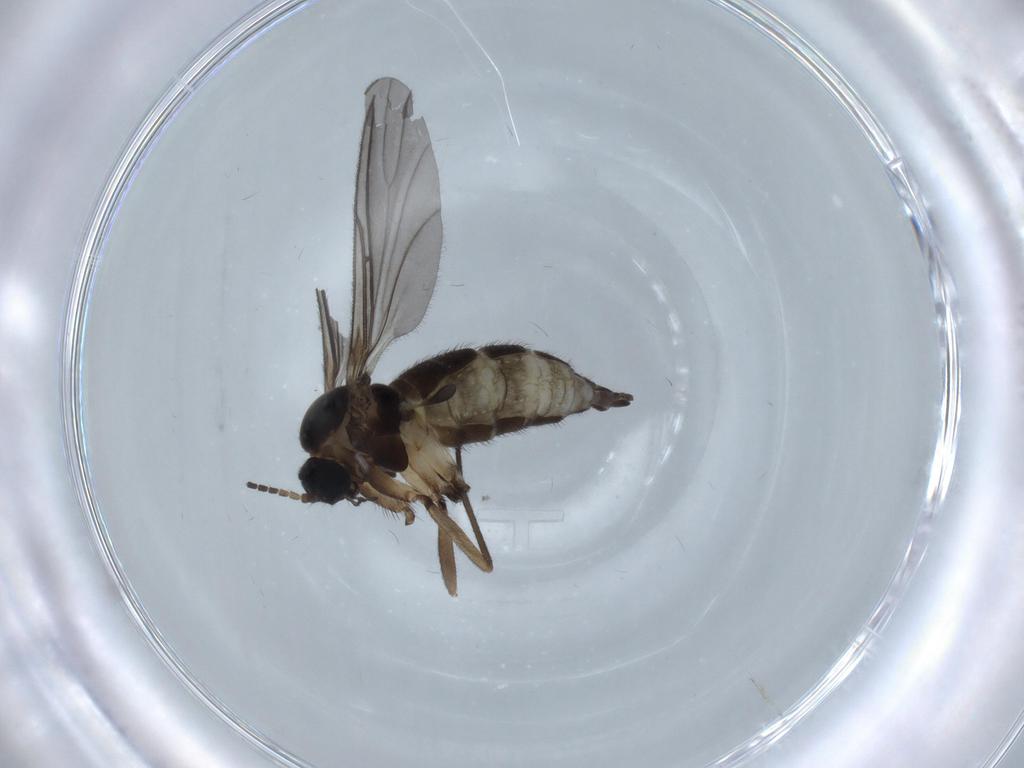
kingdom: Animalia
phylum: Arthropoda
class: Insecta
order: Diptera
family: Sciaridae
